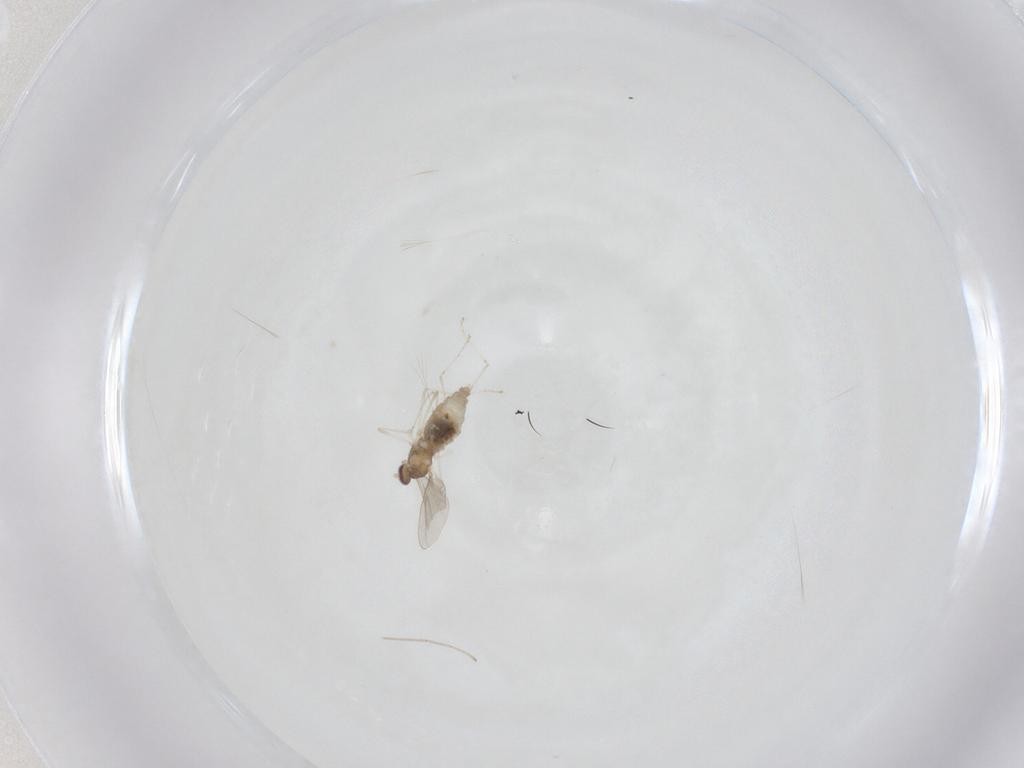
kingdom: Animalia
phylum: Arthropoda
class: Insecta
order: Diptera
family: Cecidomyiidae
